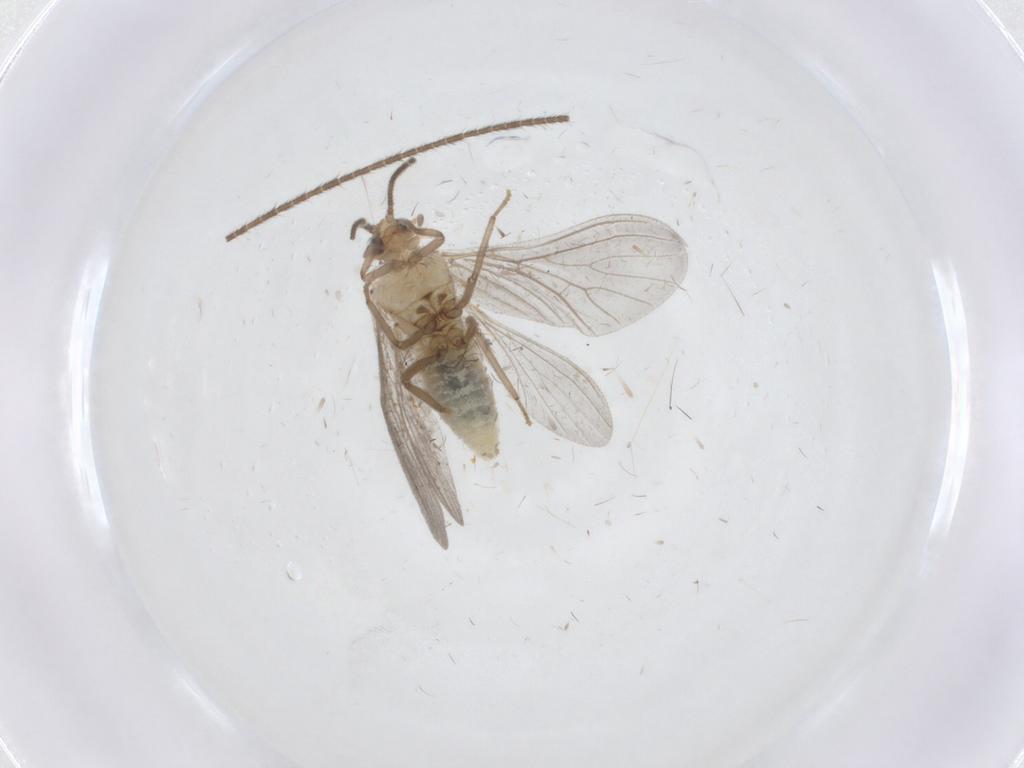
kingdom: Animalia
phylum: Arthropoda
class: Insecta
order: Neuroptera
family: Coniopterygidae
